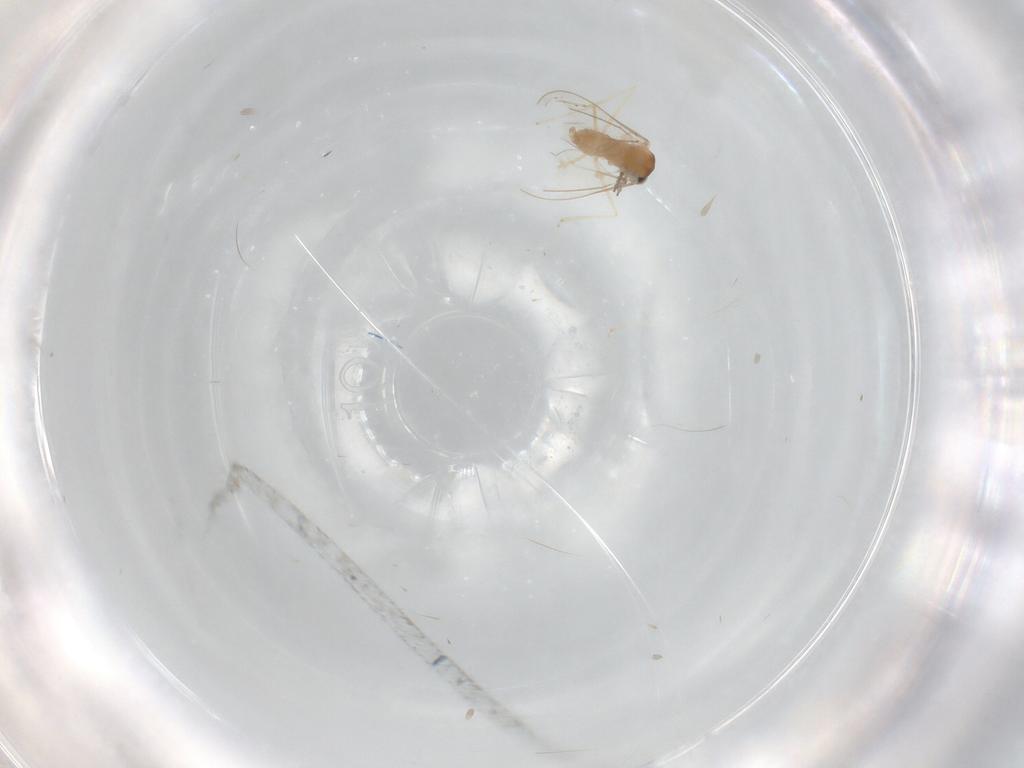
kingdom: Animalia
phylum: Arthropoda
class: Insecta
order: Diptera
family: Cecidomyiidae
